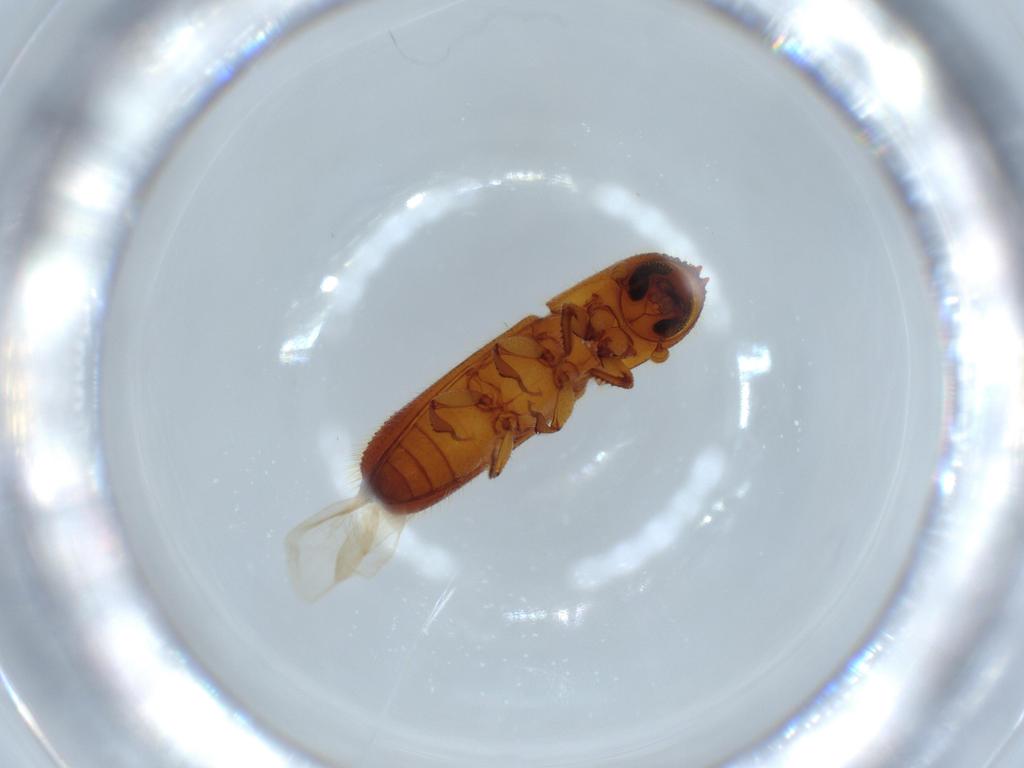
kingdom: Animalia
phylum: Arthropoda
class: Insecta
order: Coleoptera
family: Curculionidae
